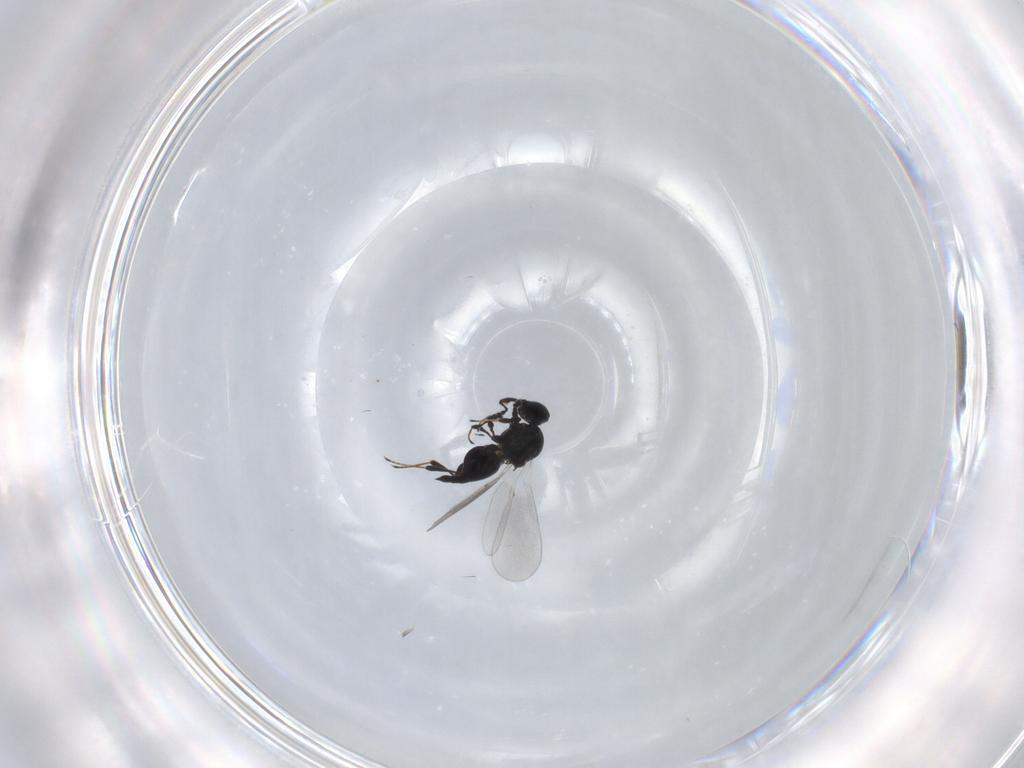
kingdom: Animalia
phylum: Arthropoda
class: Insecta
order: Hymenoptera
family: Platygastridae
